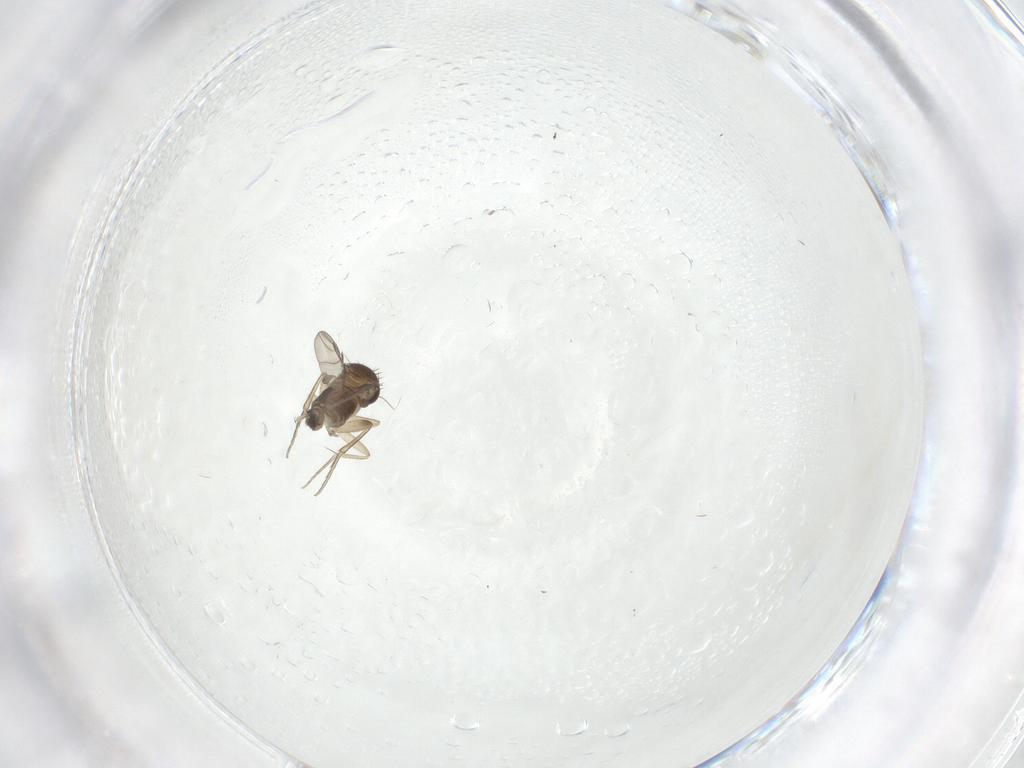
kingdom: Animalia
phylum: Arthropoda
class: Insecta
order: Diptera
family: Phoridae
